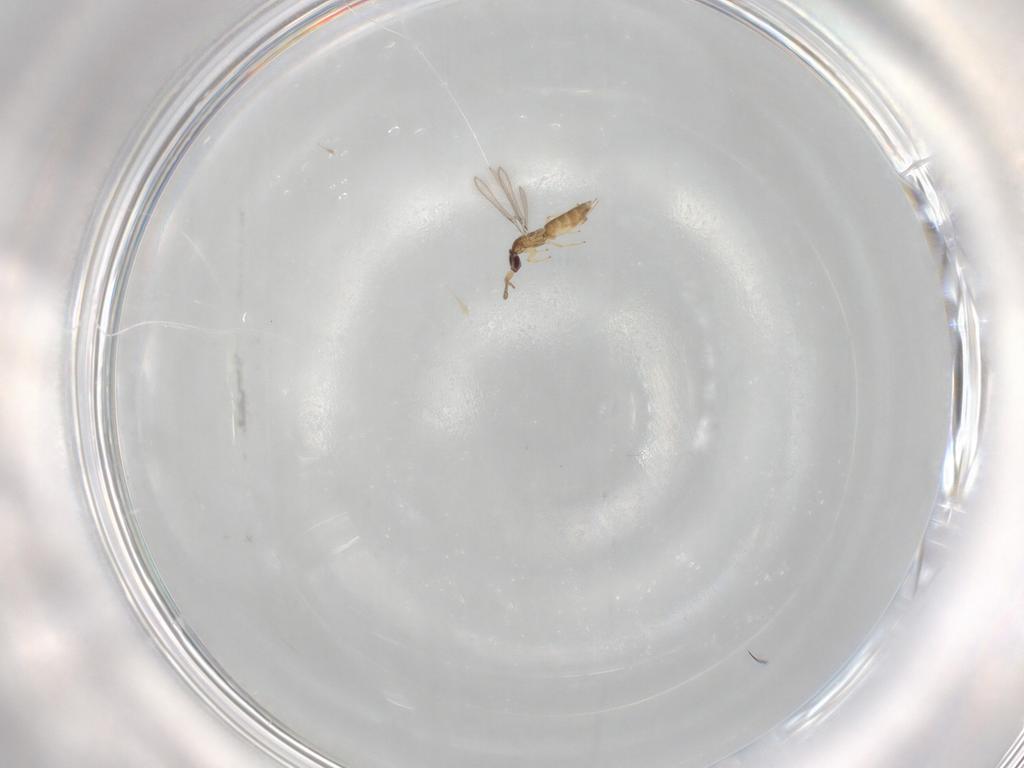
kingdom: Animalia
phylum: Arthropoda
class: Insecta
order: Hymenoptera
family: Mymaridae
